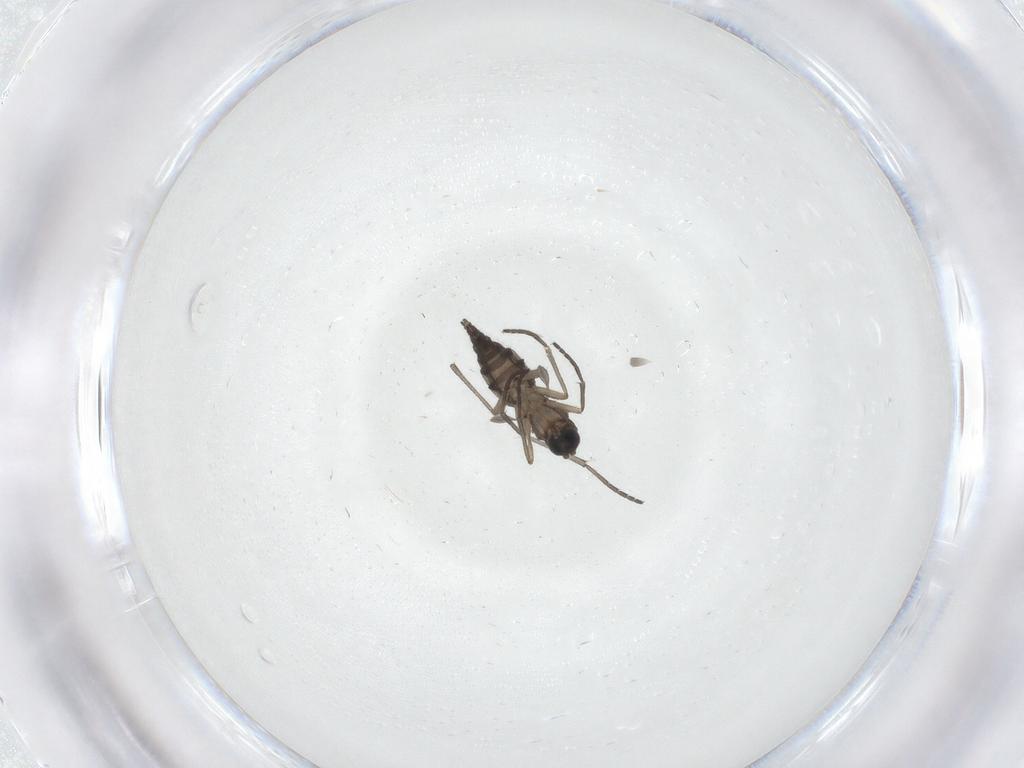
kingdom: Animalia
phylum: Arthropoda
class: Insecta
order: Diptera
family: Sciaridae
